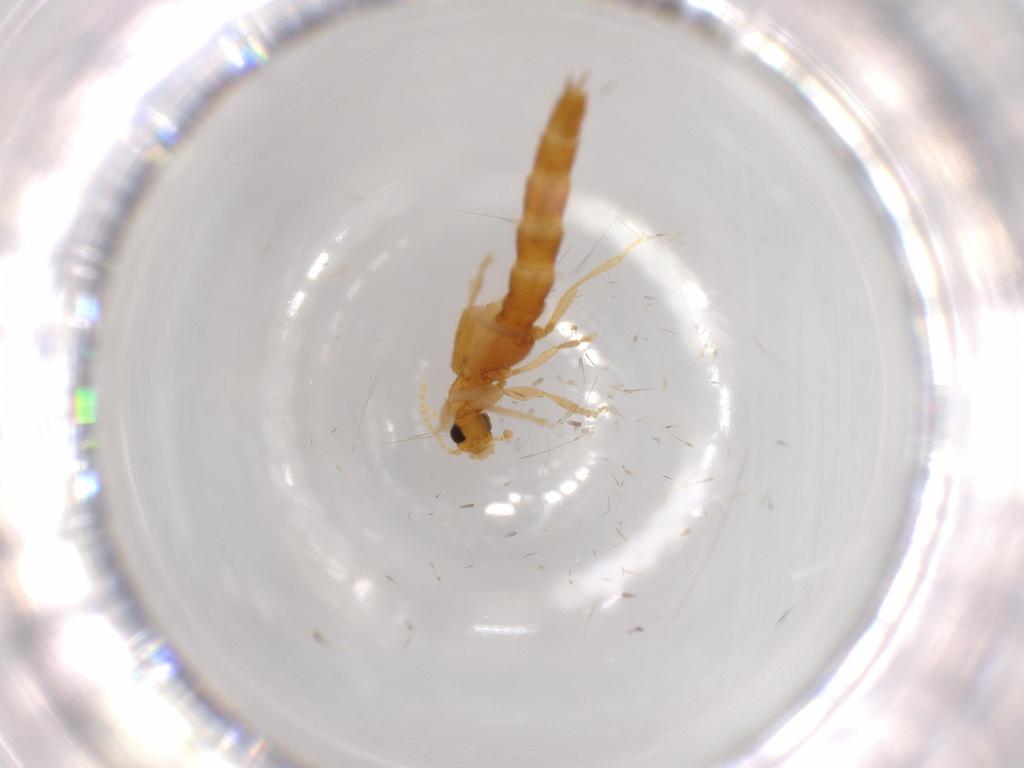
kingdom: Animalia
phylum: Arthropoda
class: Insecta
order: Coleoptera
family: Staphylinidae
